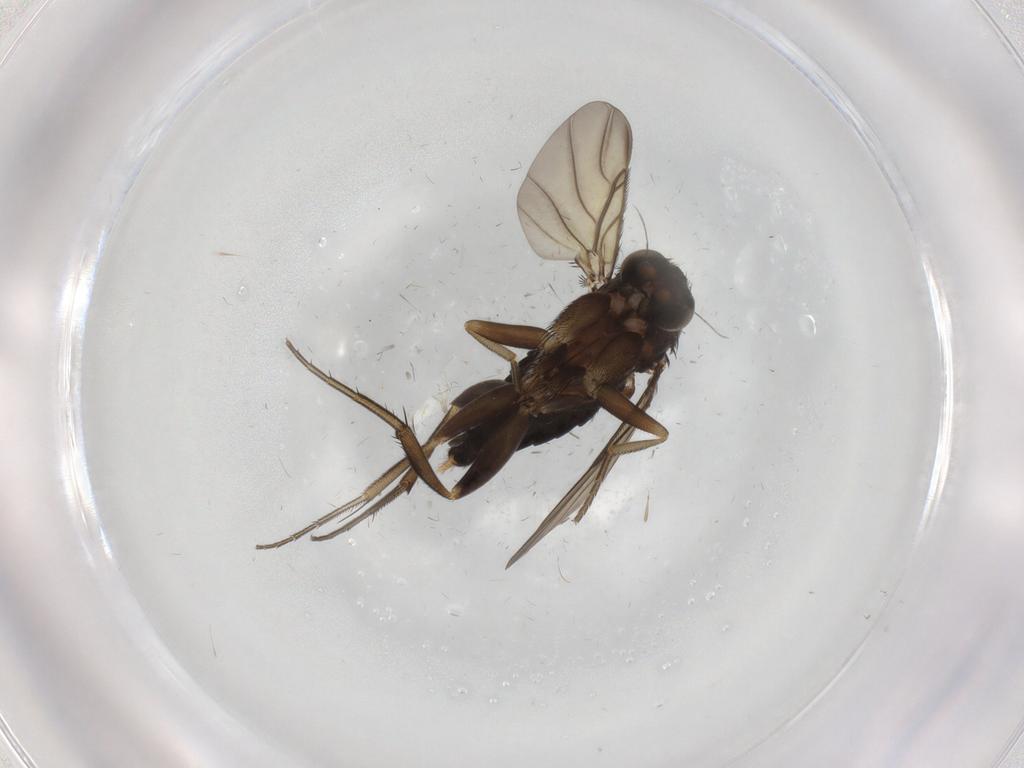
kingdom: Animalia
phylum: Arthropoda
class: Insecta
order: Diptera
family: Phoridae
